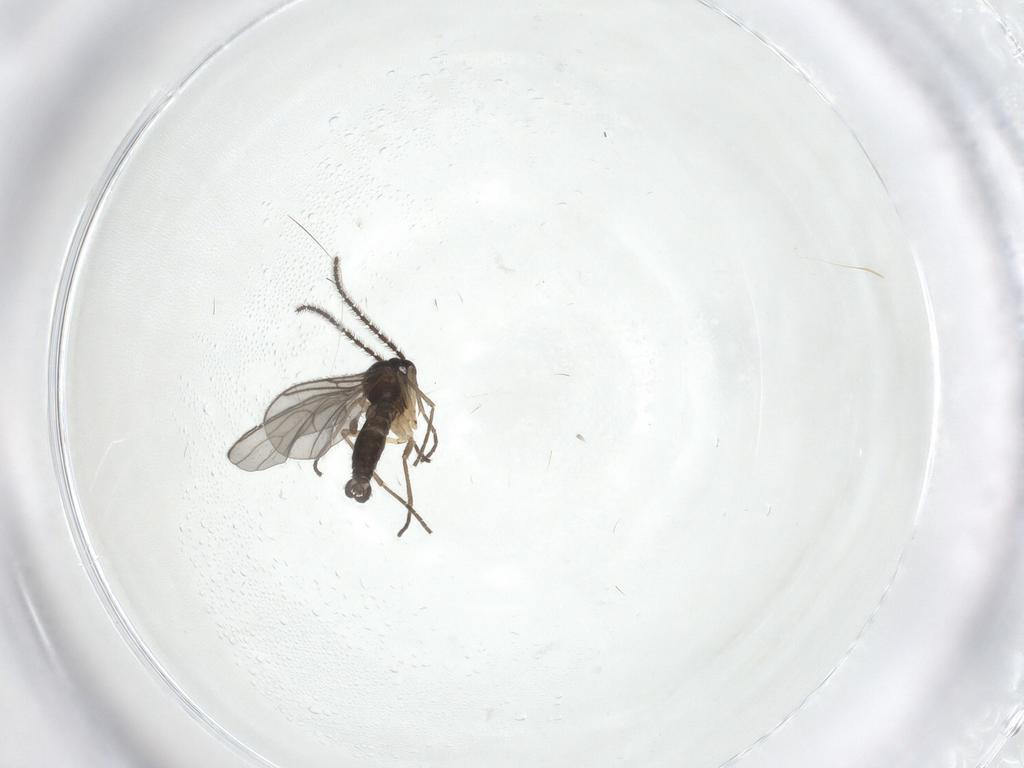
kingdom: Animalia
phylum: Arthropoda
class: Insecta
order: Diptera
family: Sciaridae
